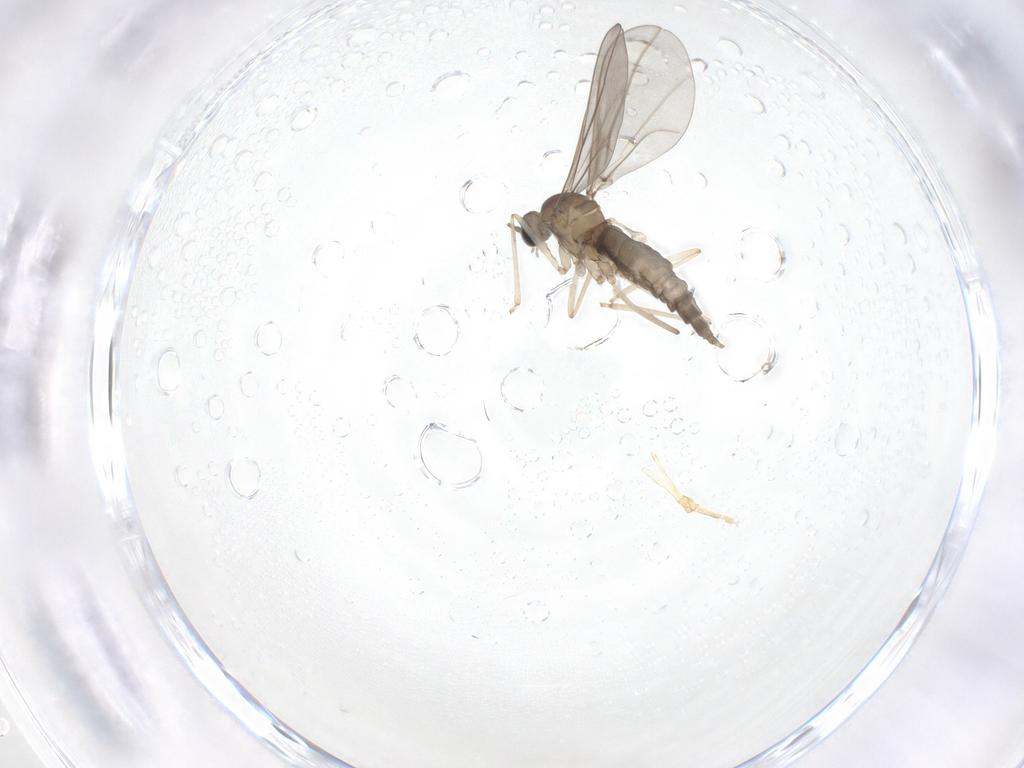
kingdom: Animalia
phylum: Arthropoda
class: Insecta
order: Diptera
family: Cecidomyiidae
